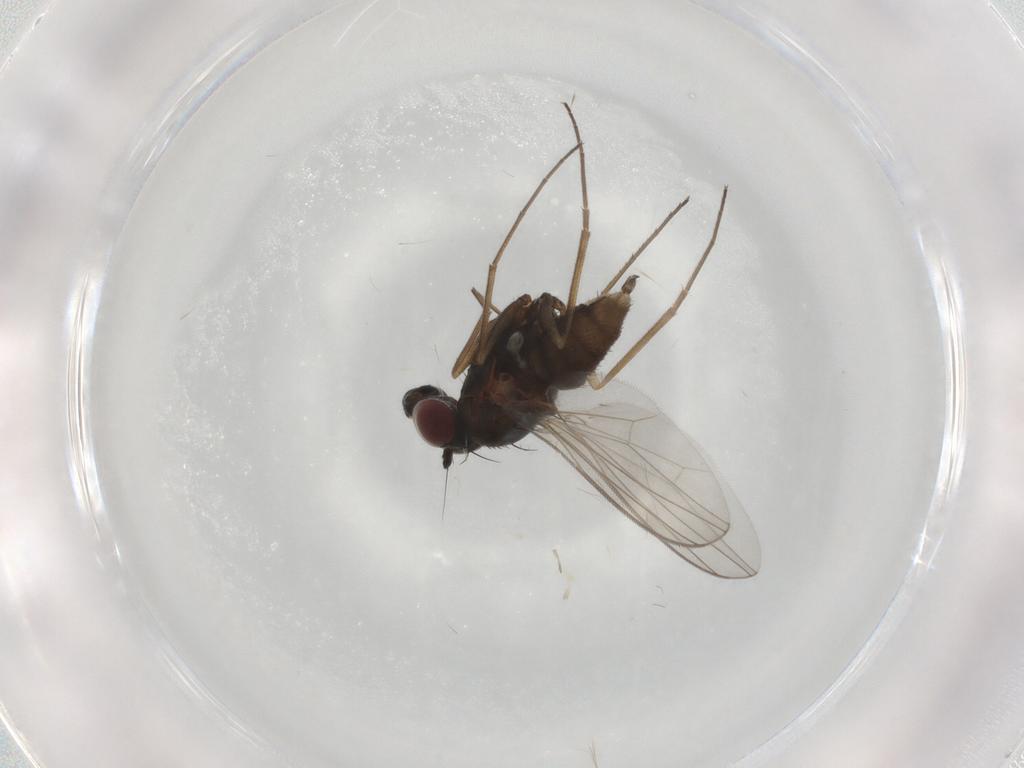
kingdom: Animalia
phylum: Arthropoda
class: Insecta
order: Diptera
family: Dolichopodidae
